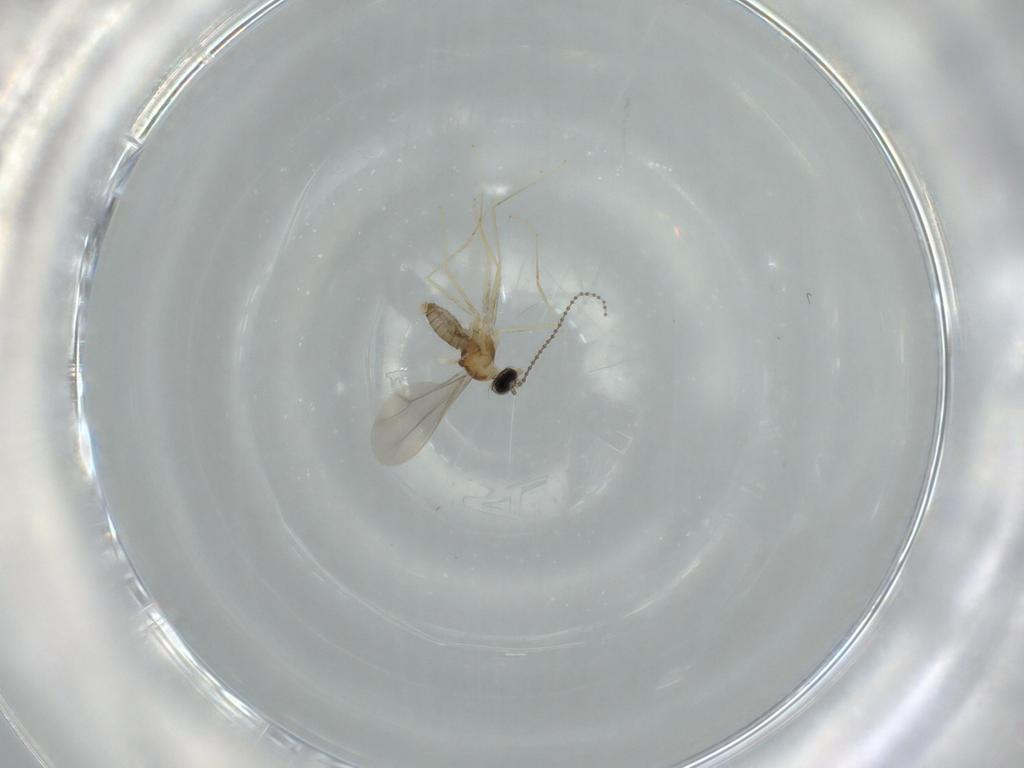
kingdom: Animalia
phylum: Arthropoda
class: Insecta
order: Diptera
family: Cecidomyiidae
